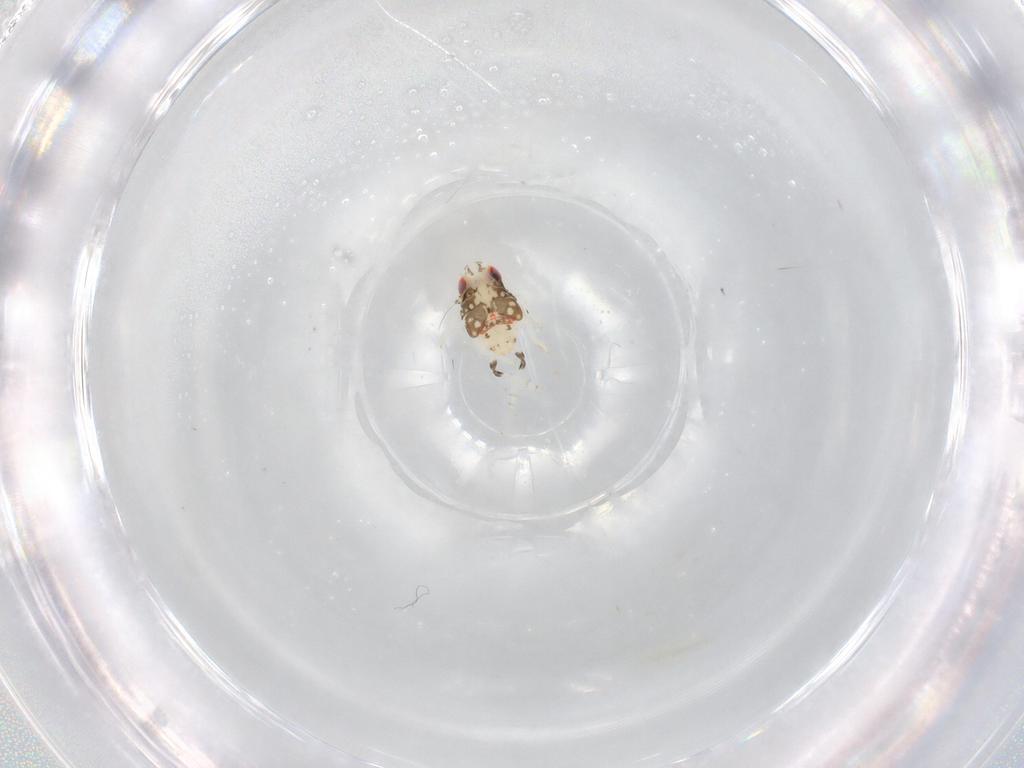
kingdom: Animalia
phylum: Arthropoda
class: Insecta
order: Hemiptera
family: Nogodinidae
